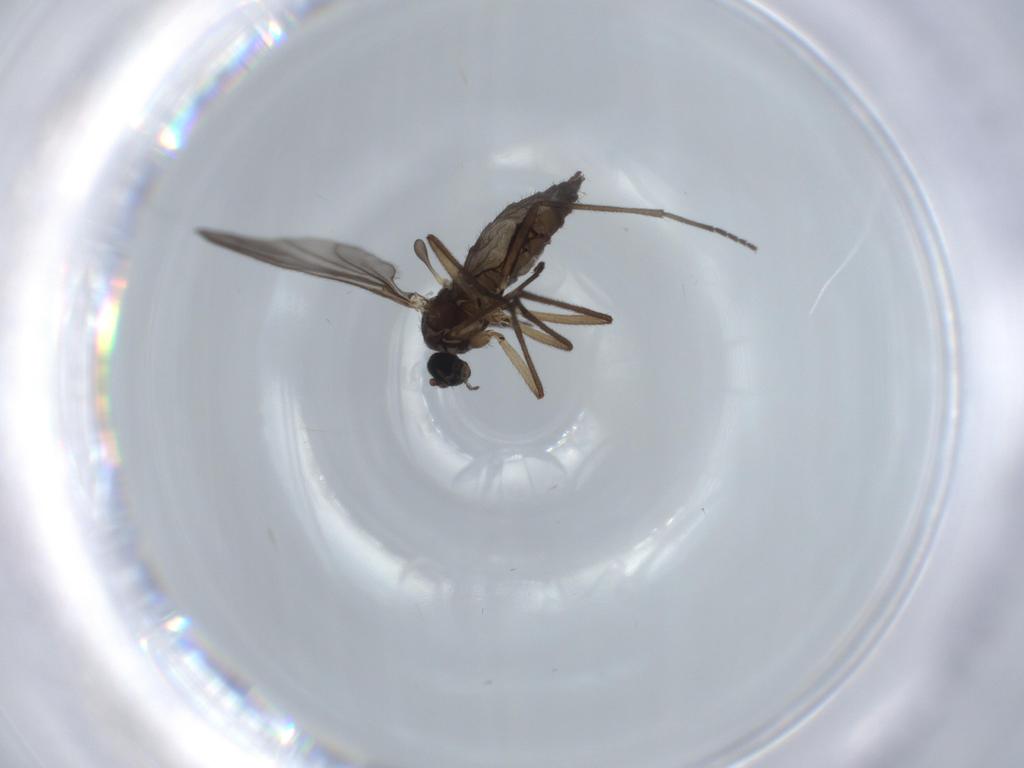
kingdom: Animalia
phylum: Arthropoda
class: Insecta
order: Diptera
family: Sciaridae
